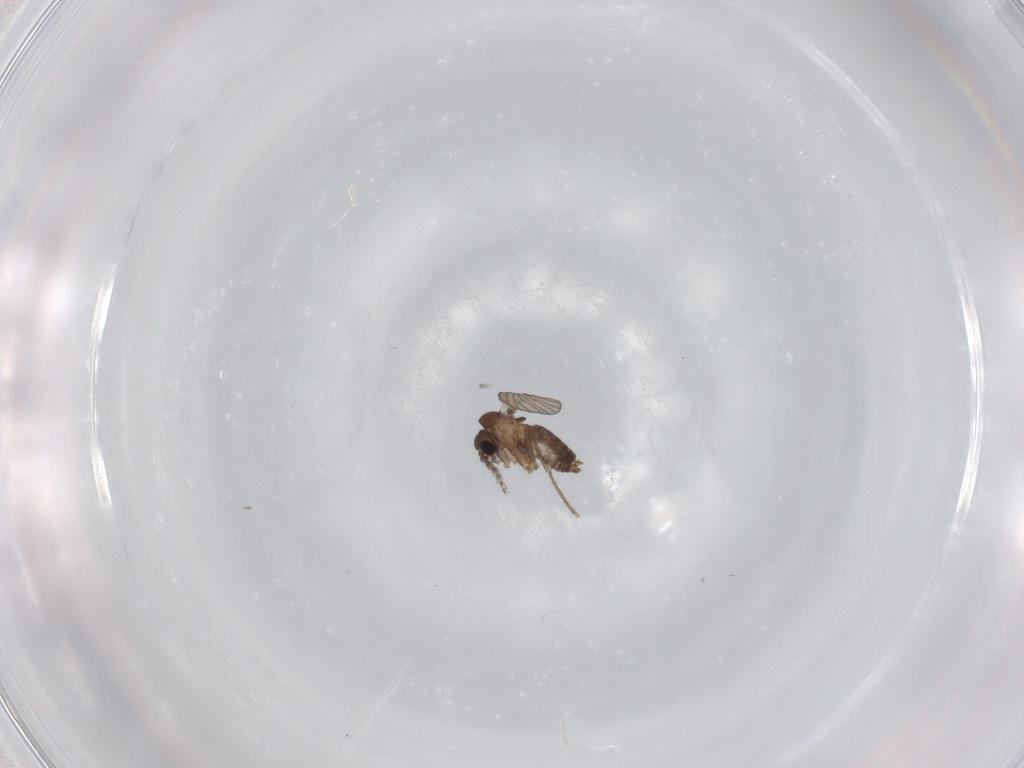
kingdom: Animalia
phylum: Arthropoda
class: Insecta
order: Diptera
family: Psychodidae
